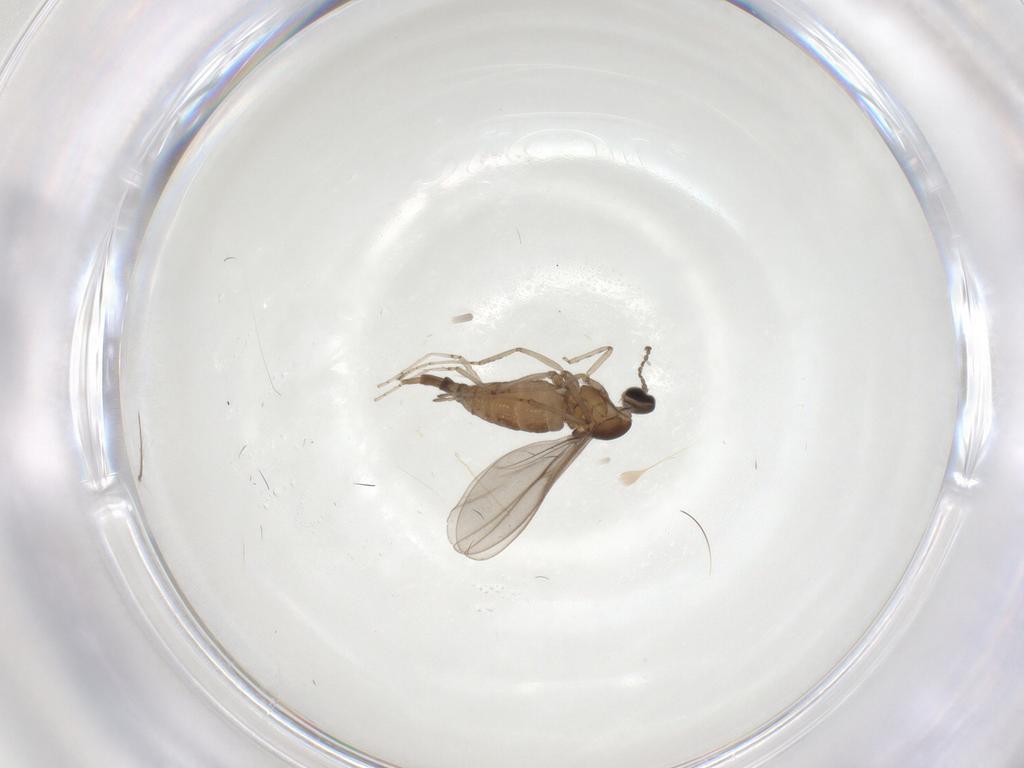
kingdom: Animalia
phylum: Arthropoda
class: Insecta
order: Diptera
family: Cecidomyiidae
